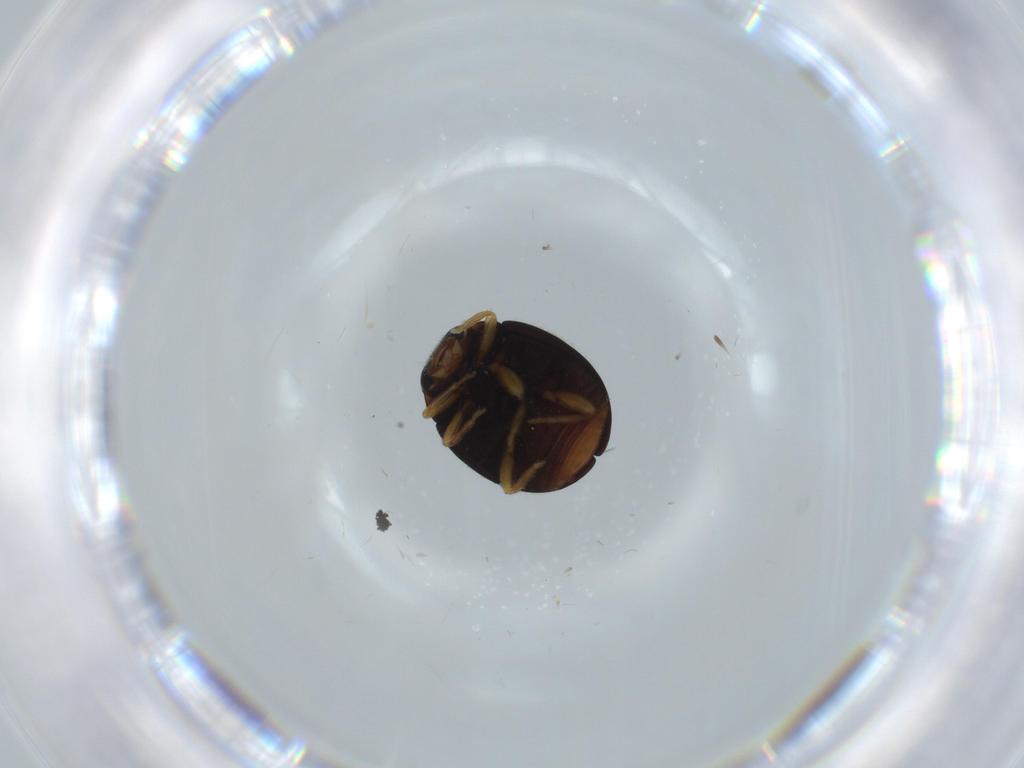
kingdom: Animalia
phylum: Arthropoda
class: Insecta
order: Coleoptera
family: Coccinellidae
